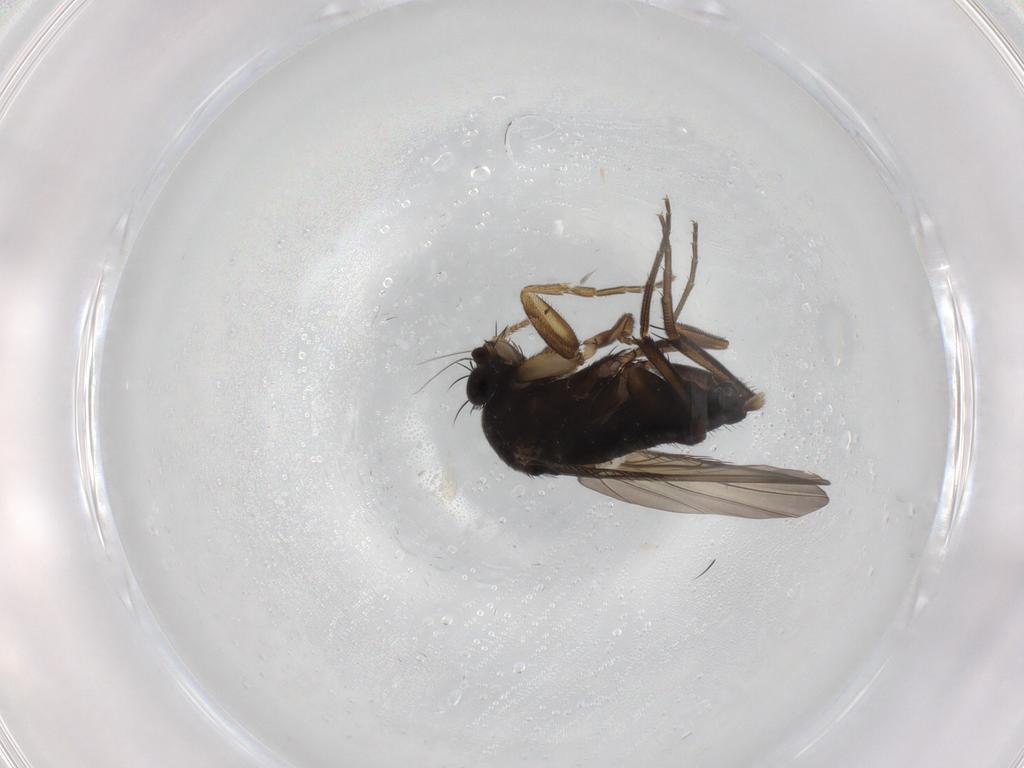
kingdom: Animalia
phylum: Arthropoda
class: Insecta
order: Diptera
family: Phoridae
